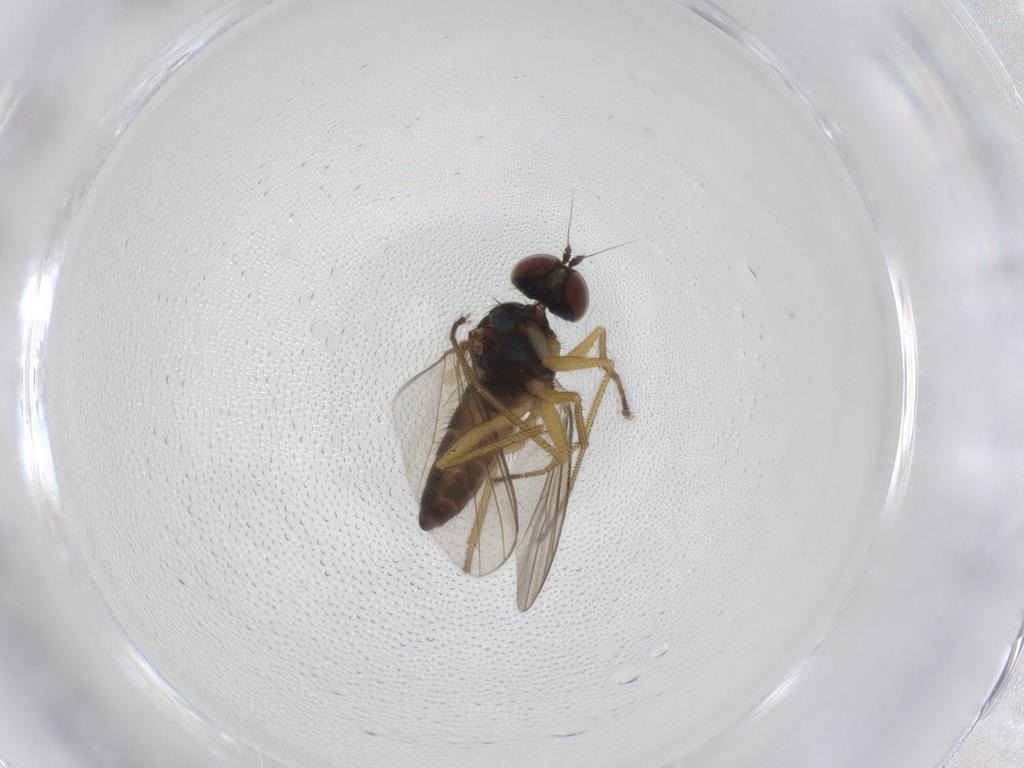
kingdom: Animalia
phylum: Arthropoda
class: Insecta
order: Diptera
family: Dolichopodidae
